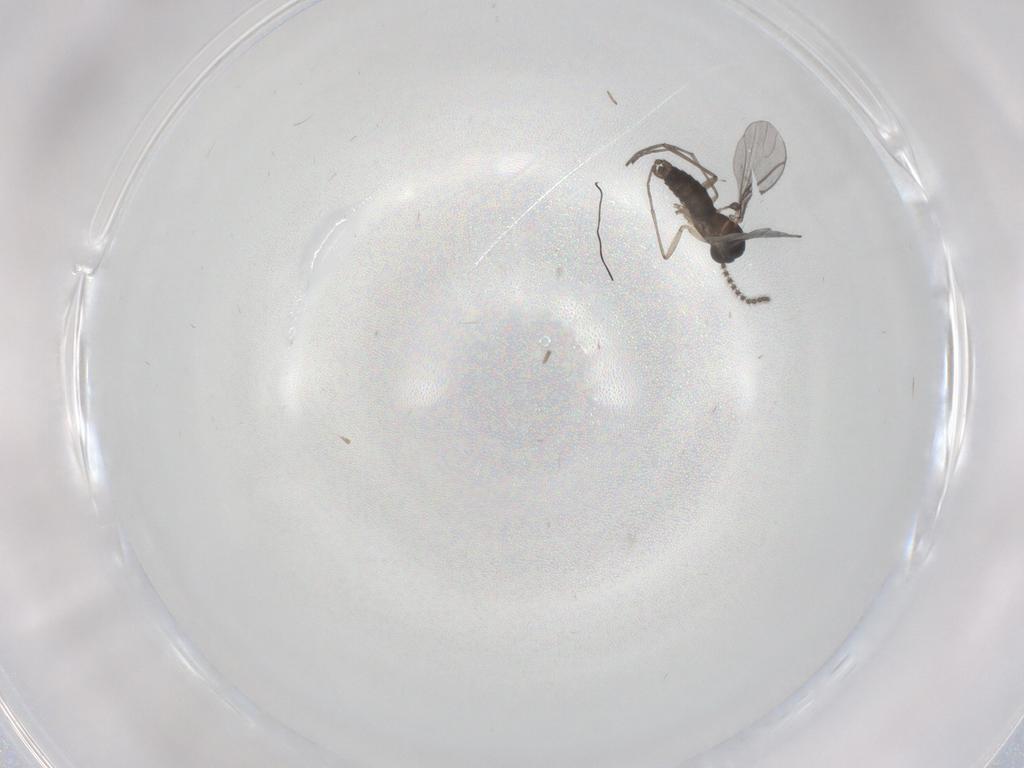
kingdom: Animalia
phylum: Arthropoda
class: Insecta
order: Diptera
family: Chironomidae
